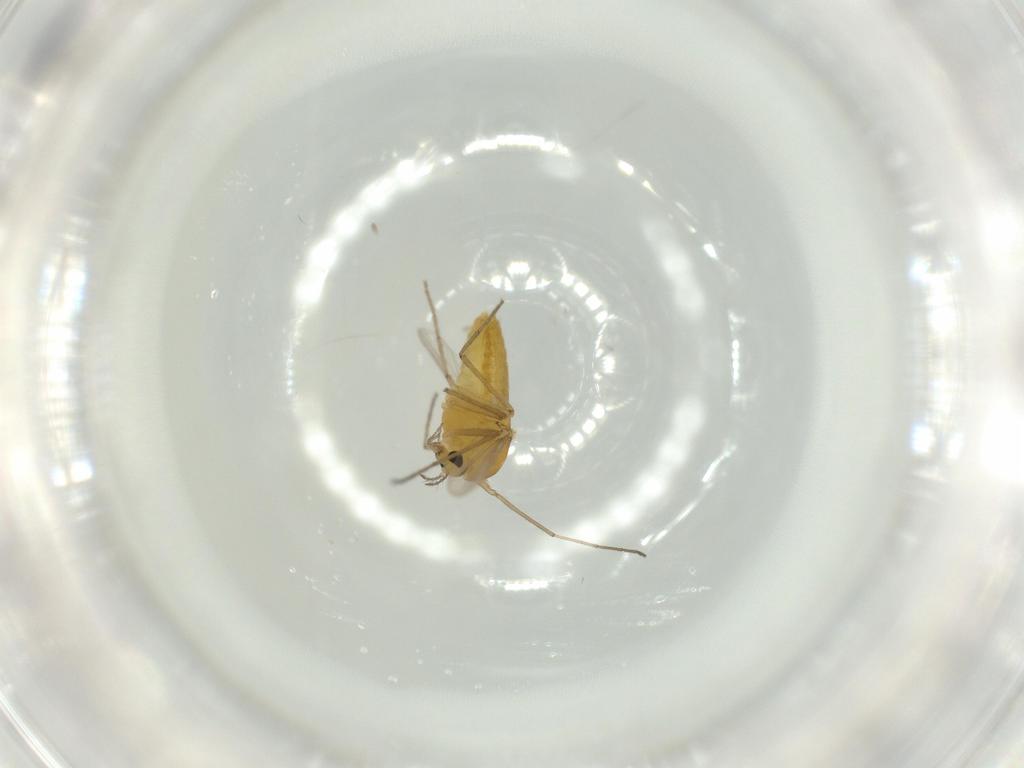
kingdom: Animalia
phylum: Arthropoda
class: Insecta
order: Diptera
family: Chironomidae
